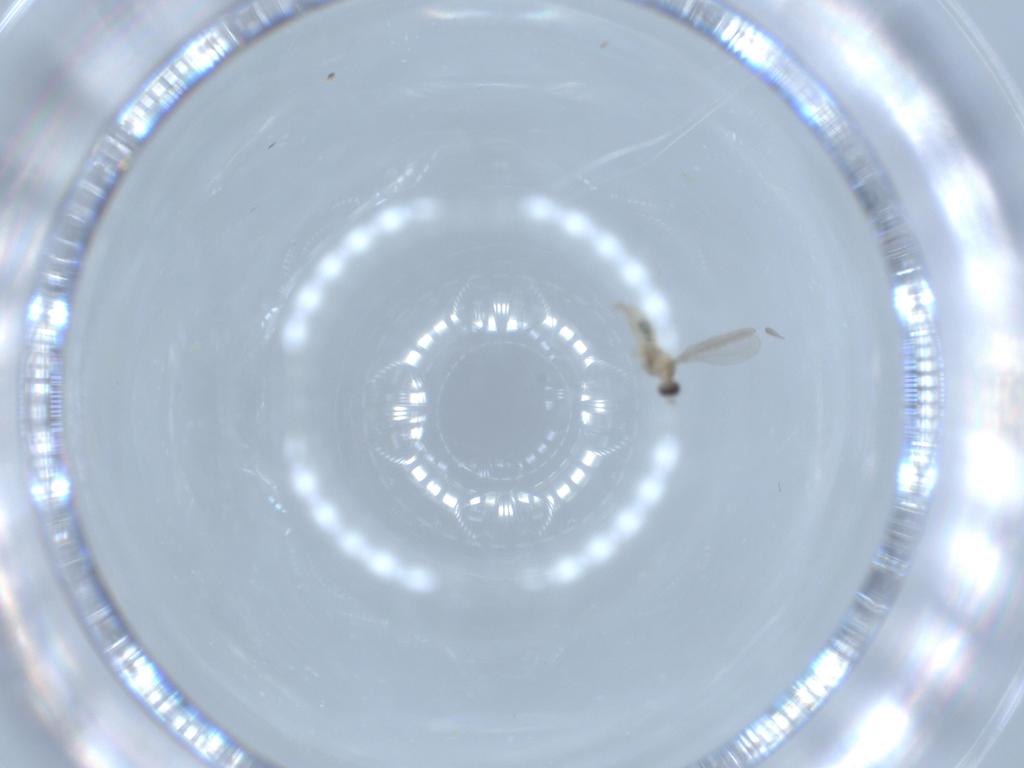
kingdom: Animalia
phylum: Arthropoda
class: Insecta
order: Diptera
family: Cecidomyiidae
